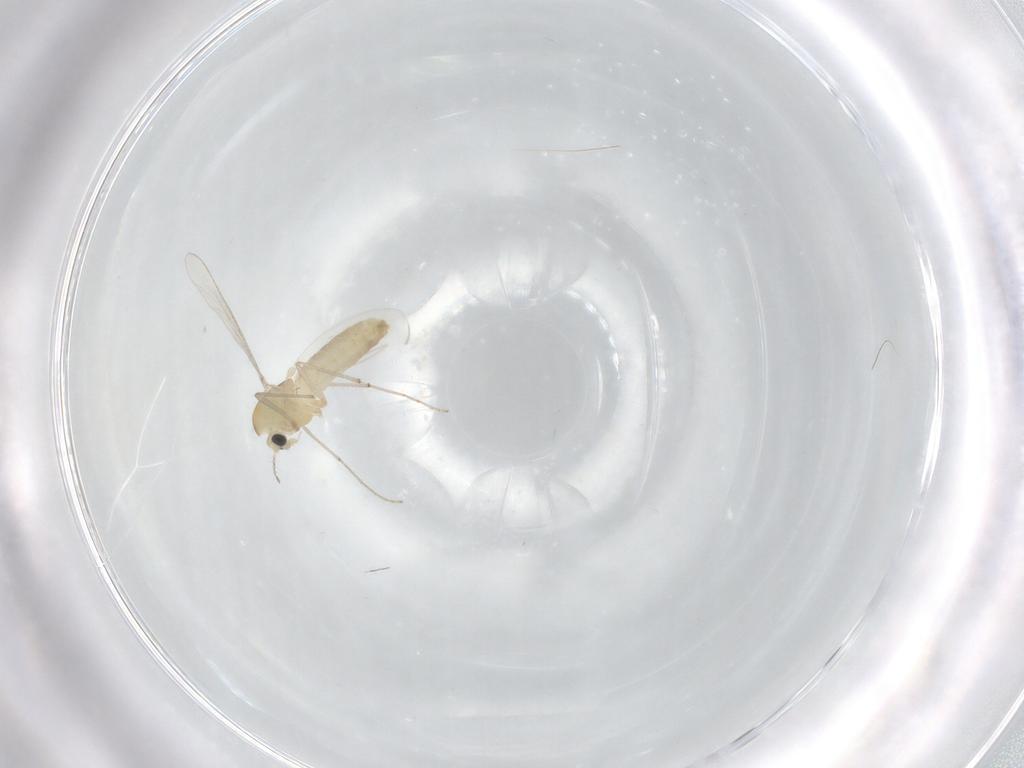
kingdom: Animalia
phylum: Arthropoda
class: Insecta
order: Diptera
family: Chironomidae
